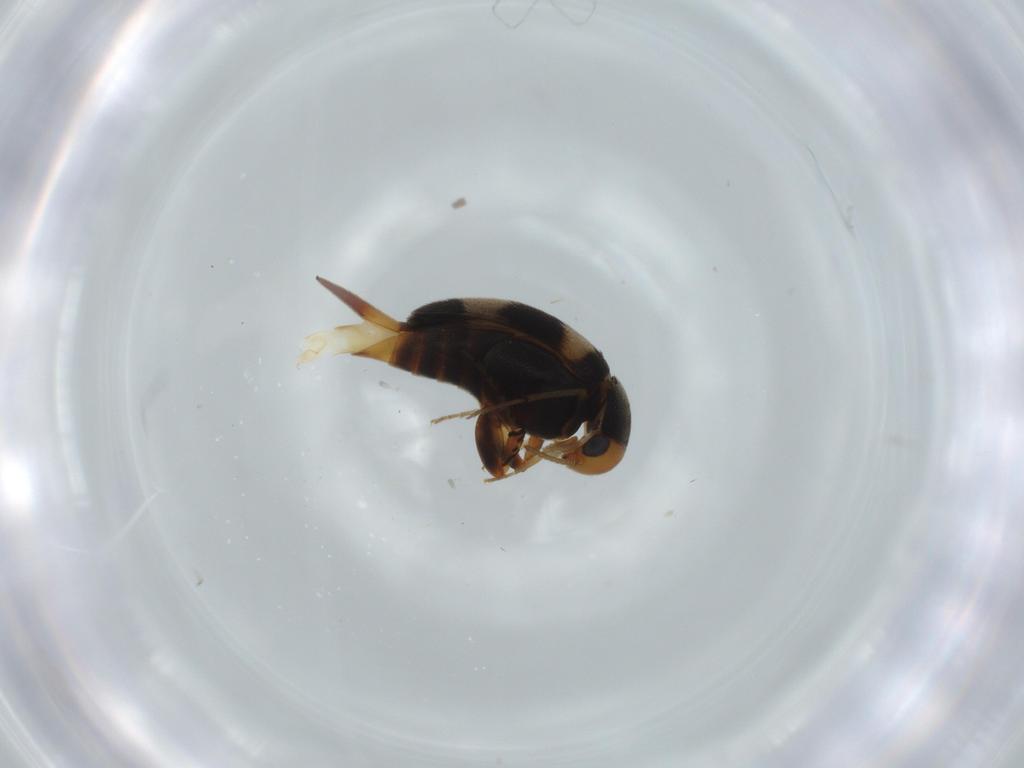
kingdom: Animalia
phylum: Arthropoda
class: Insecta
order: Coleoptera
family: Mordellidae
